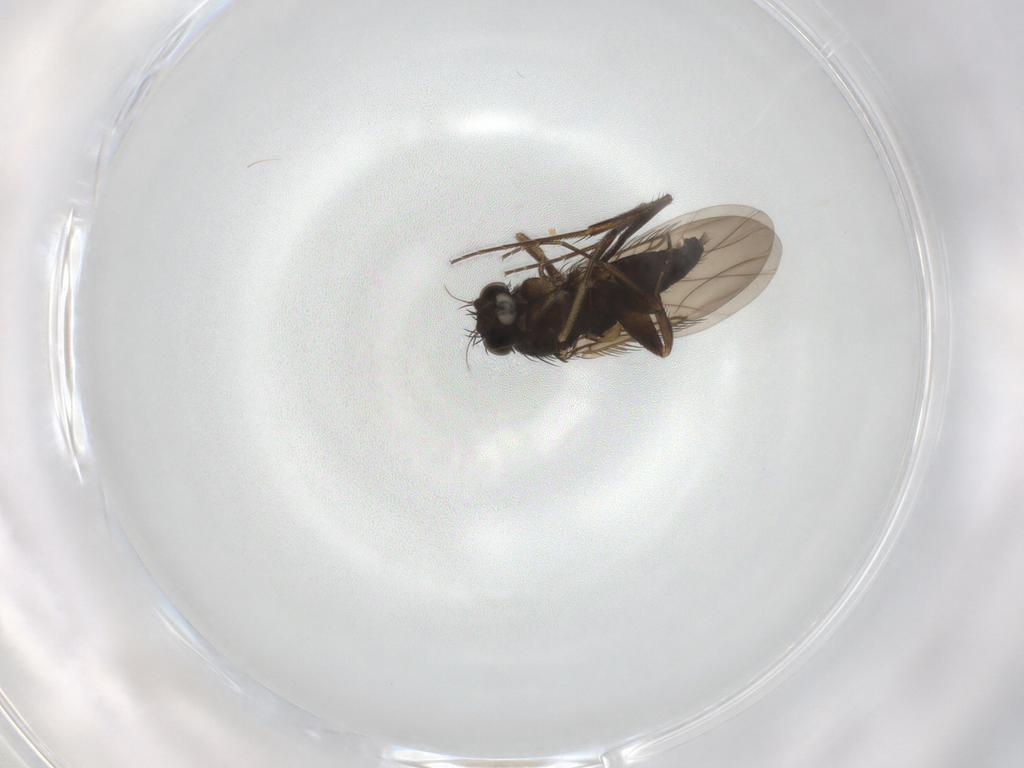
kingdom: Animalia
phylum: Arthropoda
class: Insecta
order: Diptera
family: Phoridae
